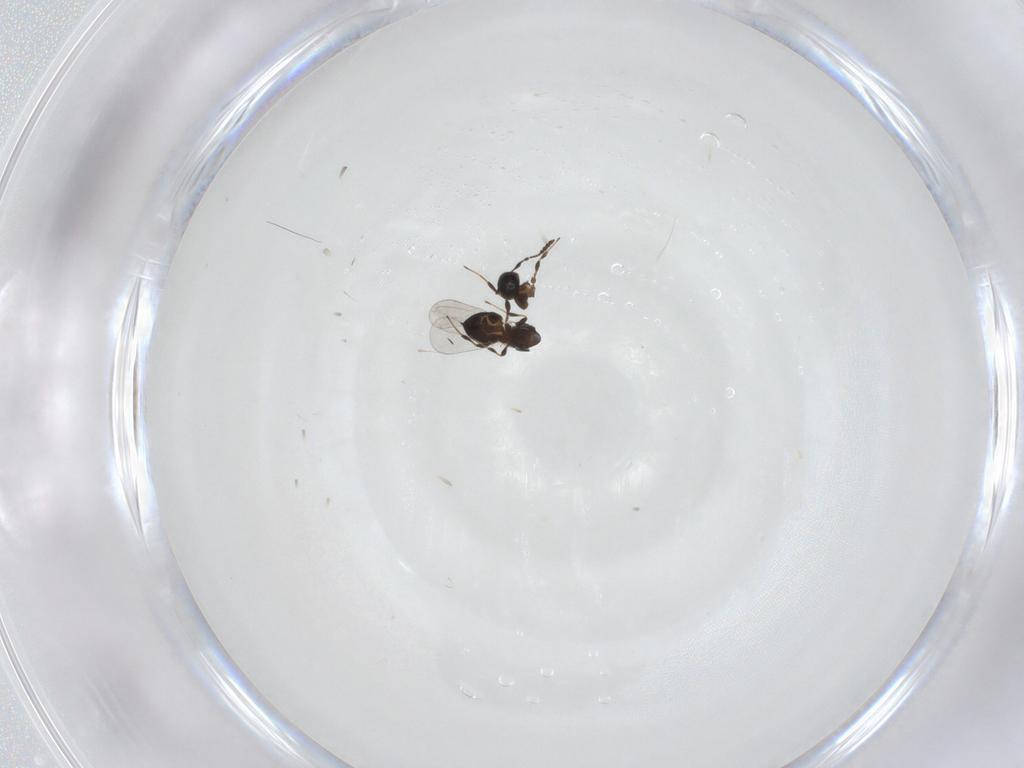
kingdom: Animalia
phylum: Arthropoda
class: Insecta
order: Hymenoptera
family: Platygastridae
